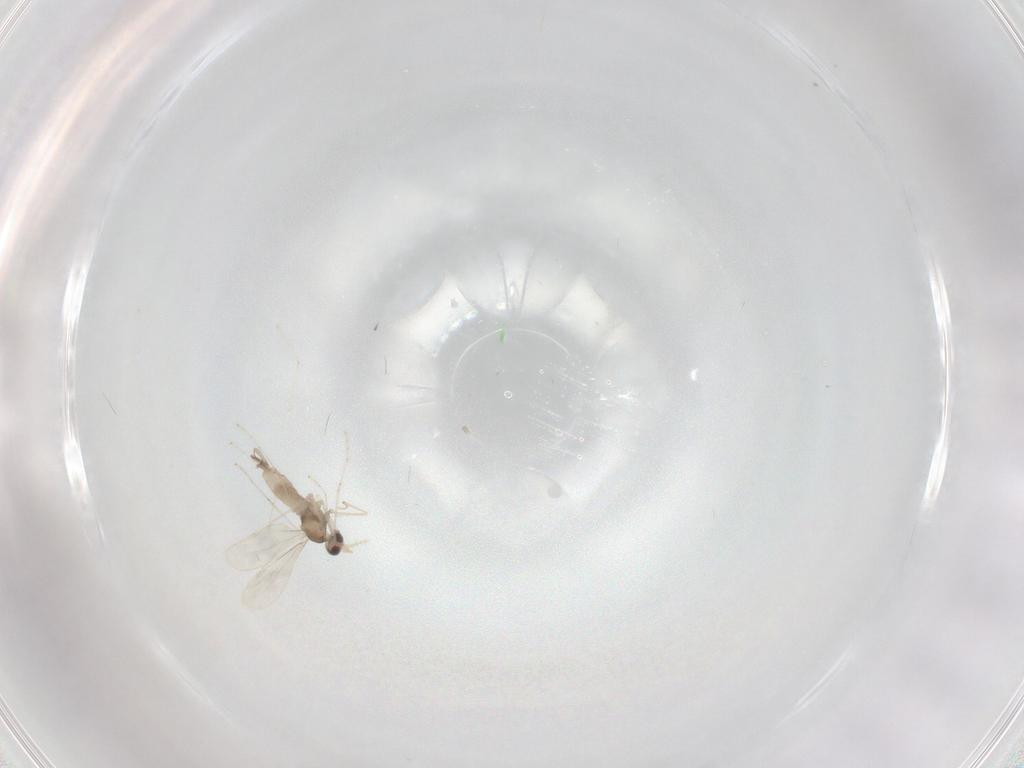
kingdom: Animalia
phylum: Arthropoda
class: Insecta
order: Diptera
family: Cecidomyiidae
